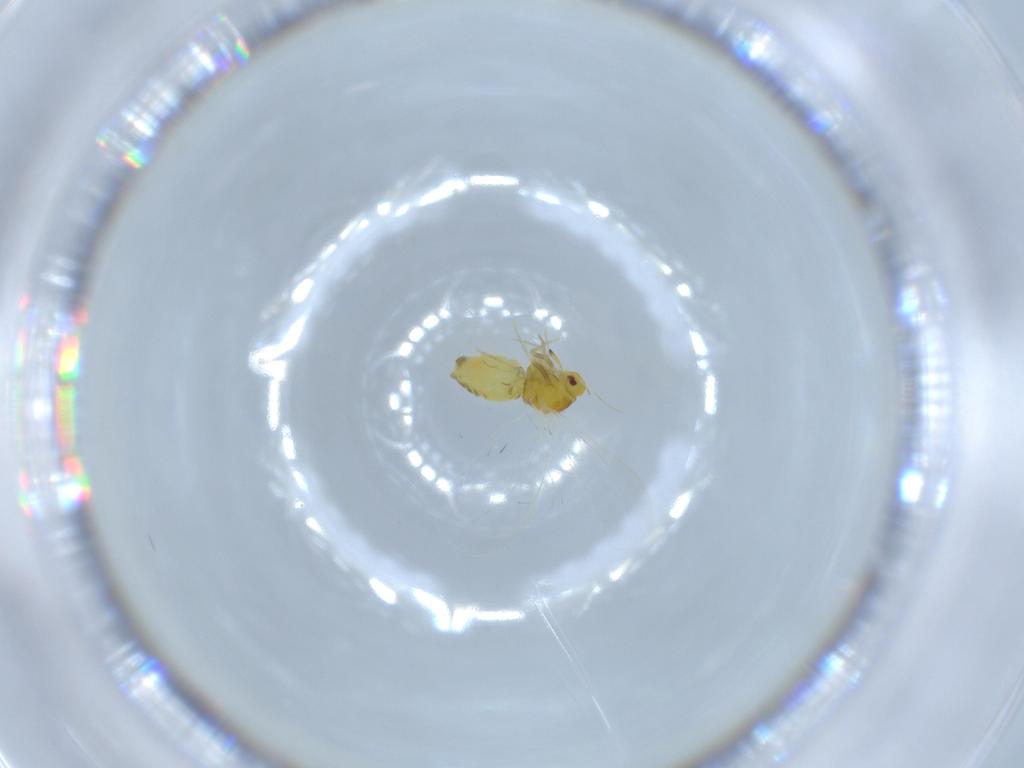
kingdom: Animalia
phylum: Arthropoda
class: Insecta
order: Hemiptera
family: Aleyrodidae
